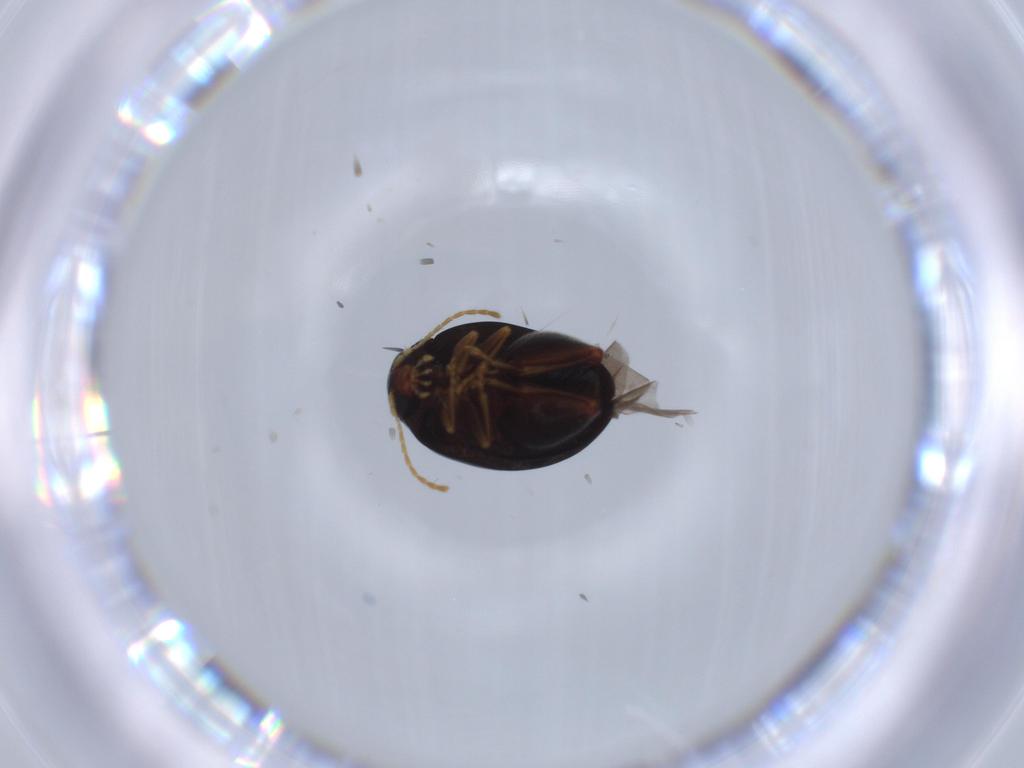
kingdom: Animalia
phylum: Arthropoda
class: Insecta
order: Coleoptera
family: Chrysomelidae
